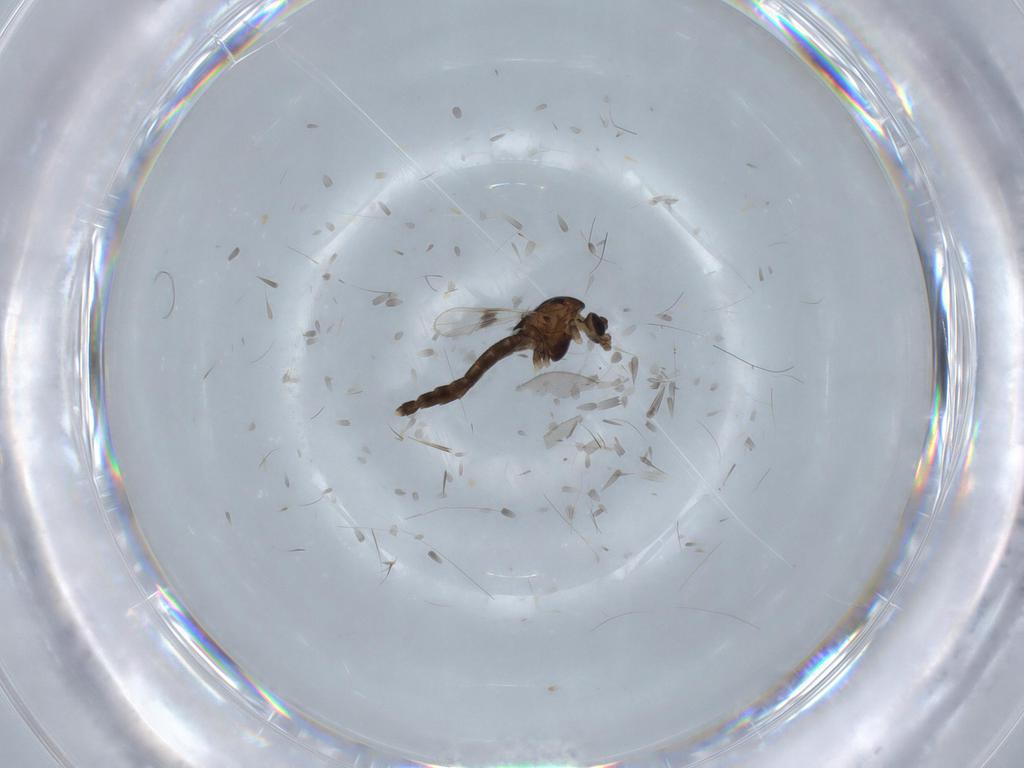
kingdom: Animalia
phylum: Arthropoda
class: Insecta
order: Diptera
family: Chironomidae
